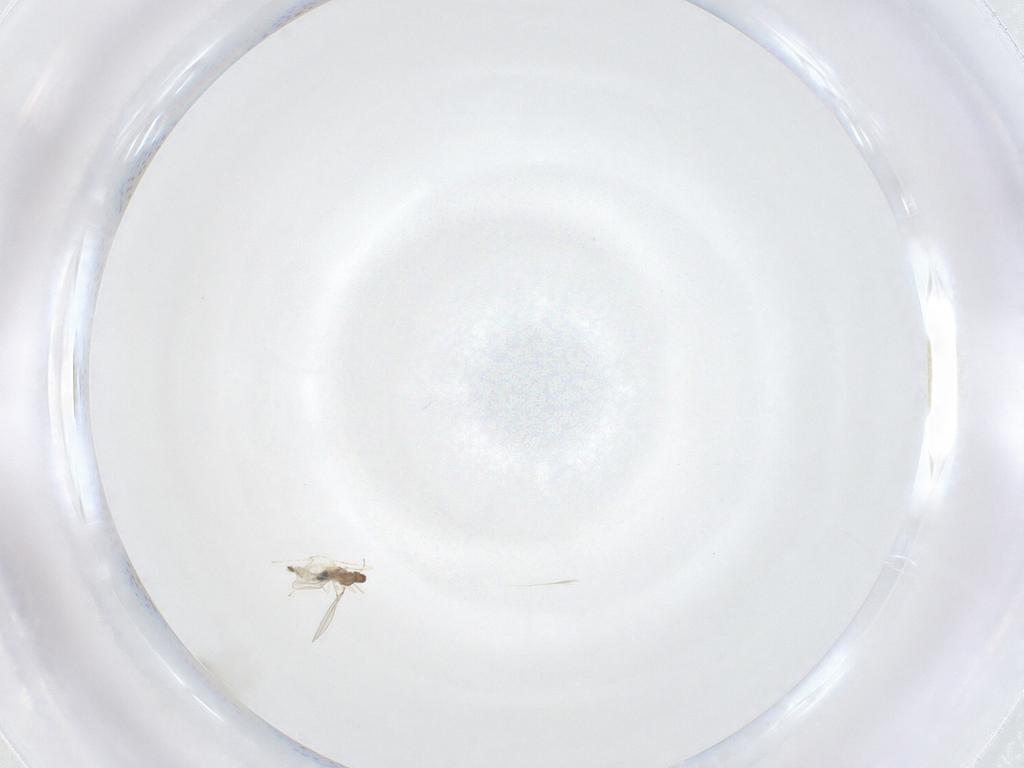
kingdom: Animalia
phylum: Arthropoda
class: Insecta
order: Diptera
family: Cecidomyiidae
